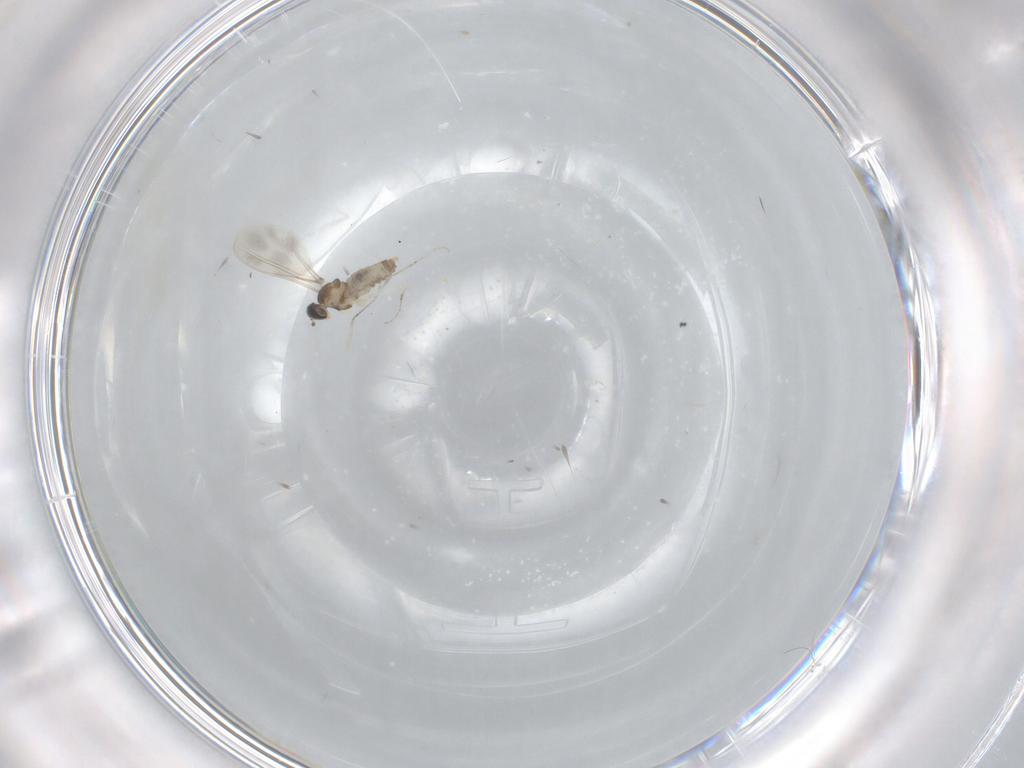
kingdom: Animalia
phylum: Arthropoda
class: Insecta
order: Diptera
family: Cecidomyiidae
